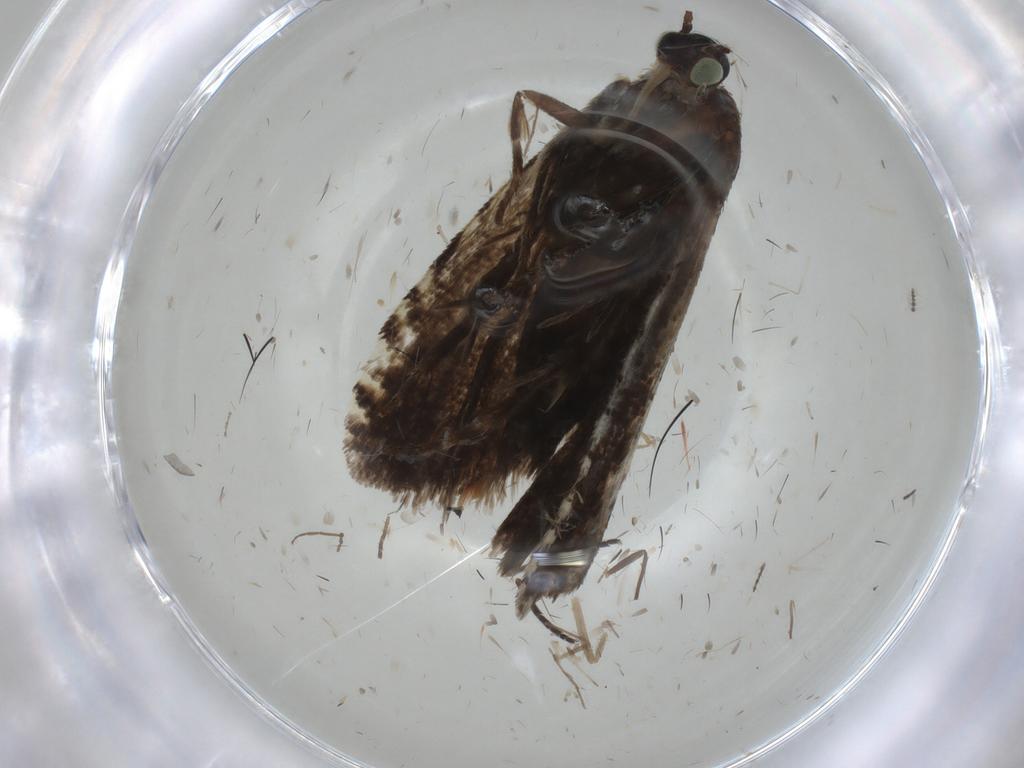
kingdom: Animalia
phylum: Arthropoda
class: Insecta
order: Lepidoptera
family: Tortricidae
